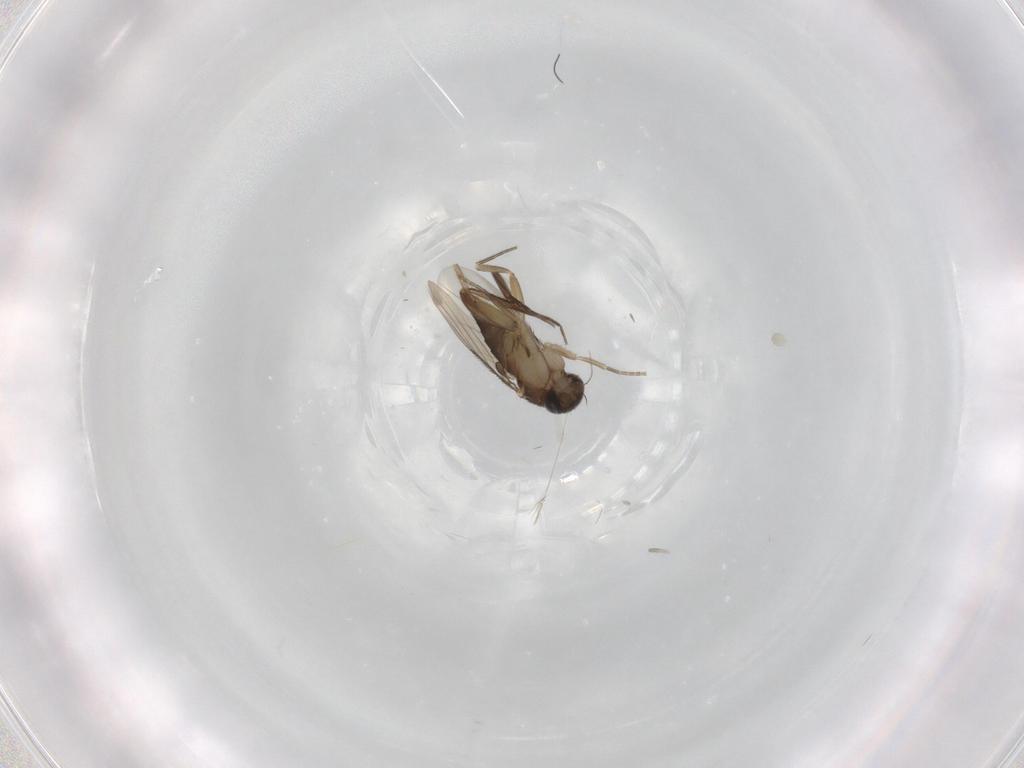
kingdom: Animalia
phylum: Arthropoda
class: Insecta
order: Diptera
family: Phoridae
